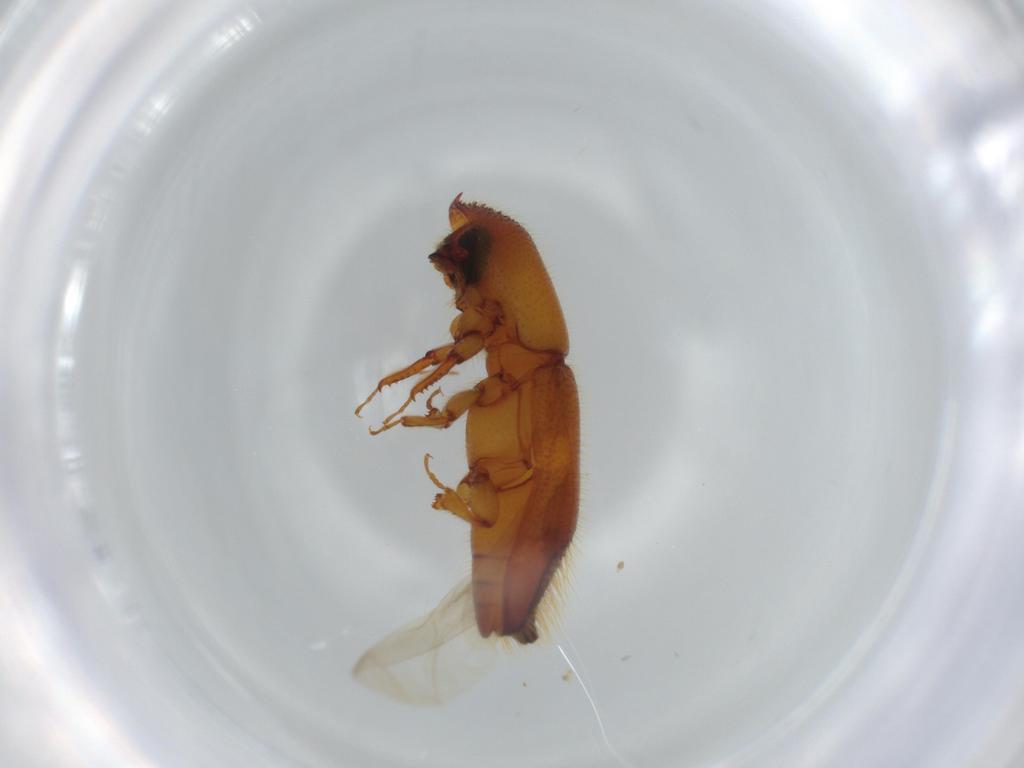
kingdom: Animalia
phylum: Arthropoda
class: Insecta
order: Coleoptera
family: Curculionidae
